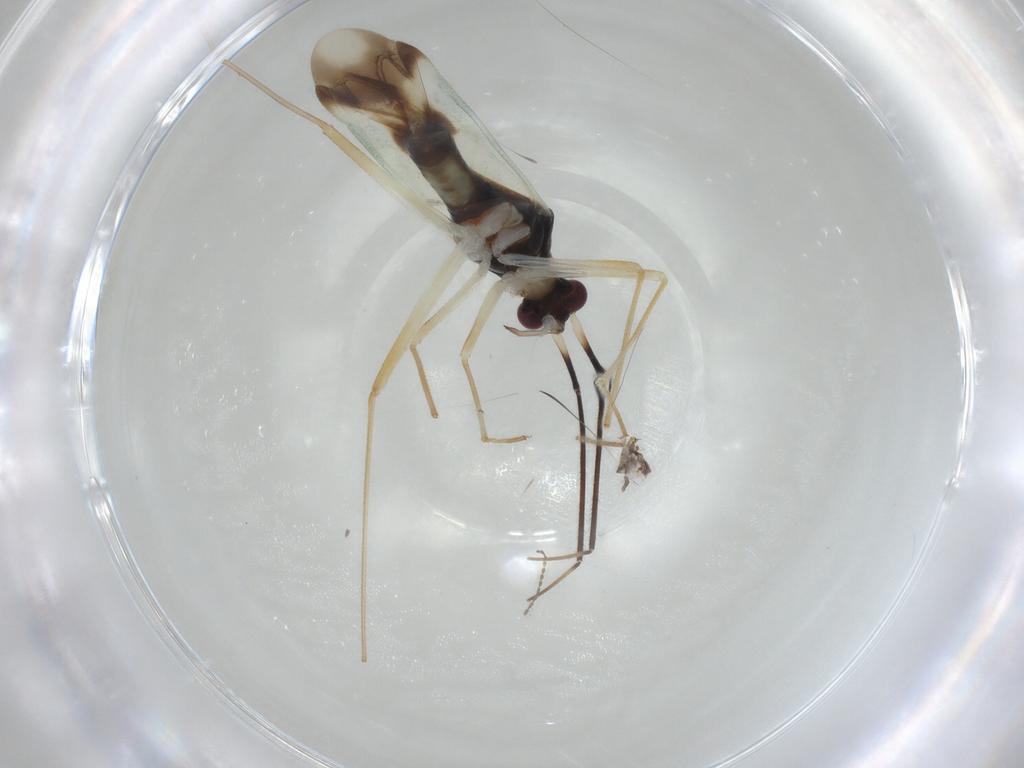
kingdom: Animalia
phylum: Arthropoda
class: Insecta
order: Hemiptera
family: Miridae
